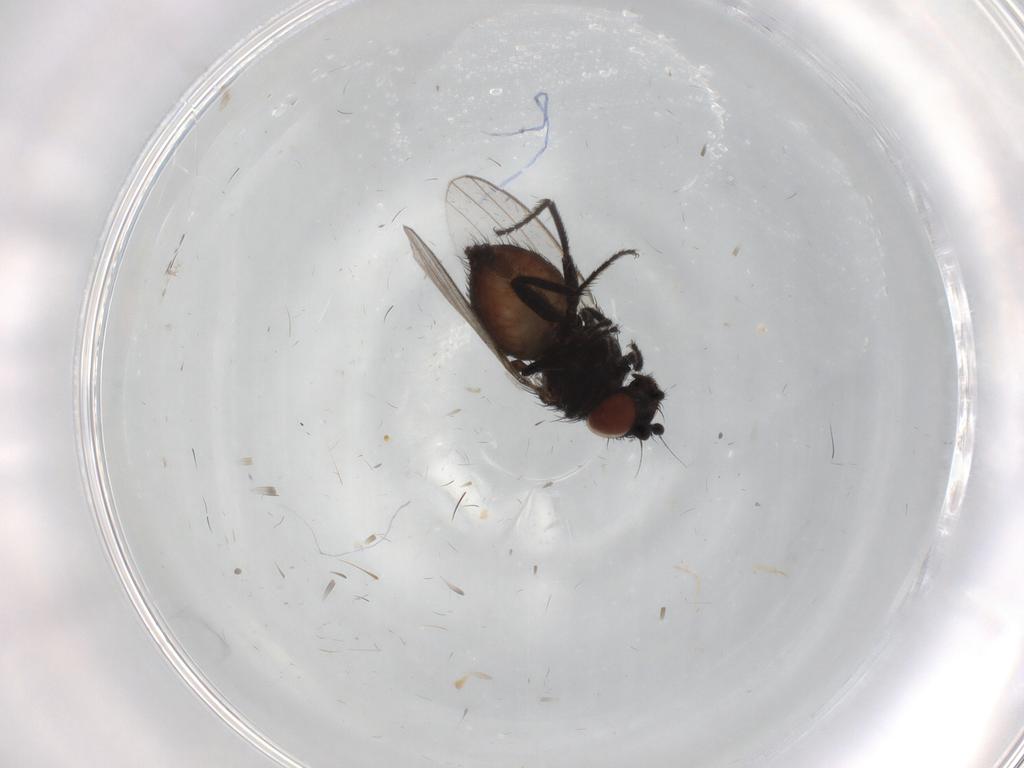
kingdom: Animalia
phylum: Arthropoda
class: Insecta
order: Diptera
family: Milichiidae
